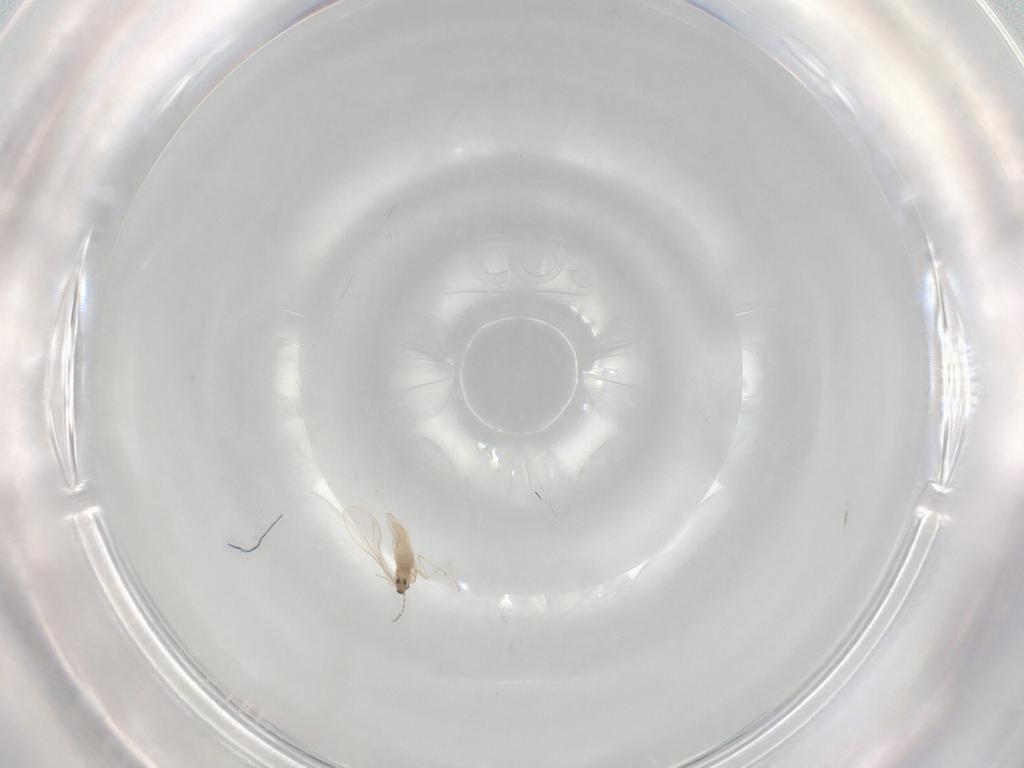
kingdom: Animalia
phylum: Arthropoda
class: Insecta
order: Diptera
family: Cecidomyiidae
